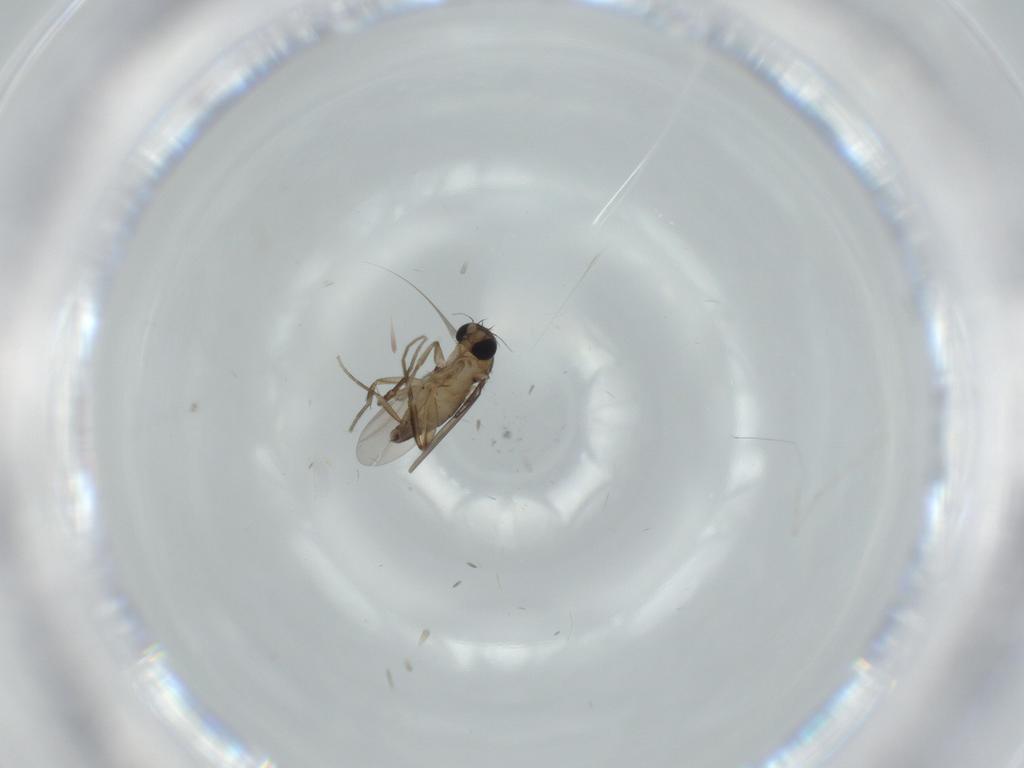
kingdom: Animalia
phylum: Arthropoda
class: Insecta
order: Diptera
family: Phoridae
